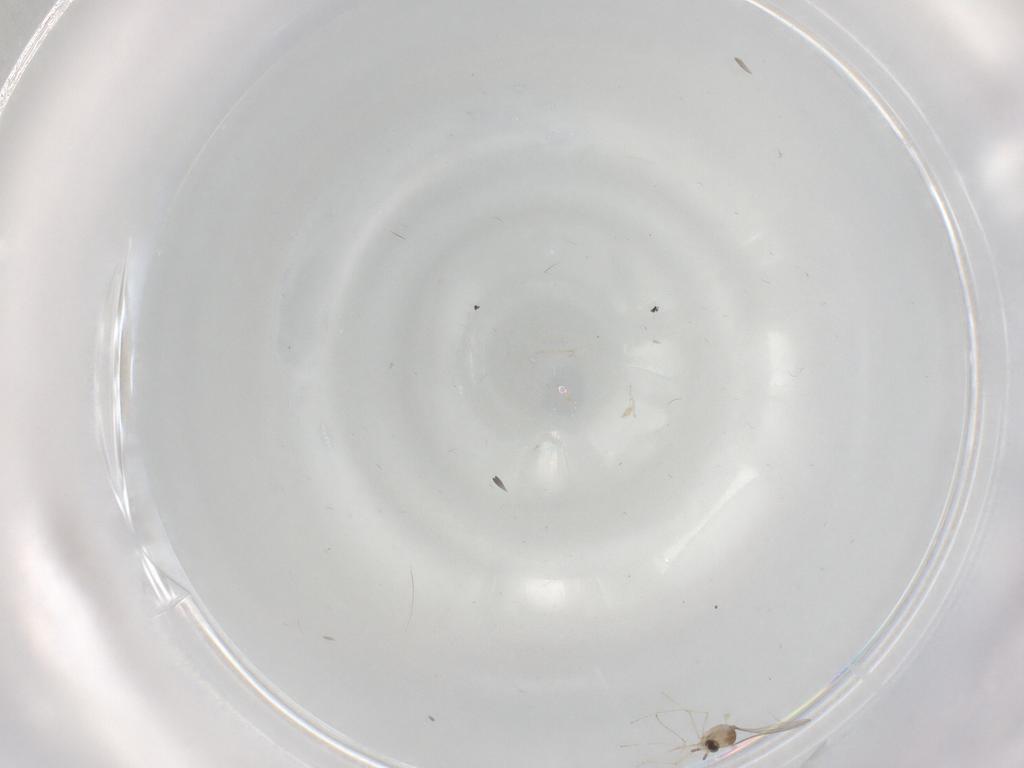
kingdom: Animalia
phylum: Arthropoda
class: Insecta
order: Diptera
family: Cecidomyiidae
